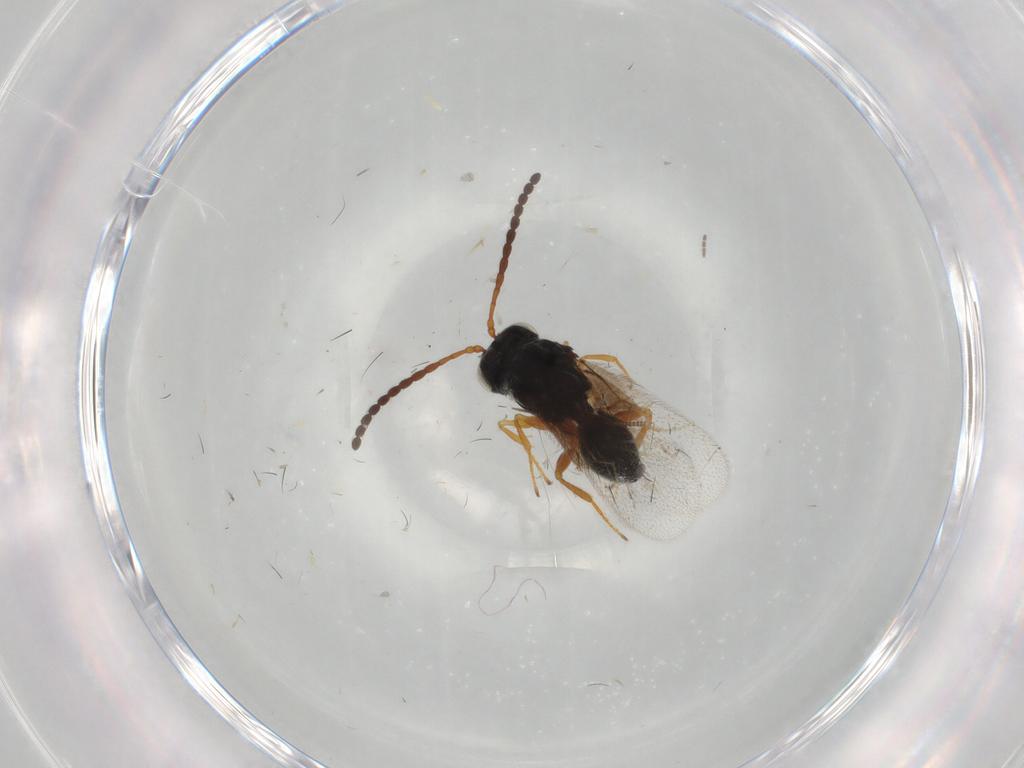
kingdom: Animalia
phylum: Arthropoda
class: Insecta
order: Hymenoptera
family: Figitidae
